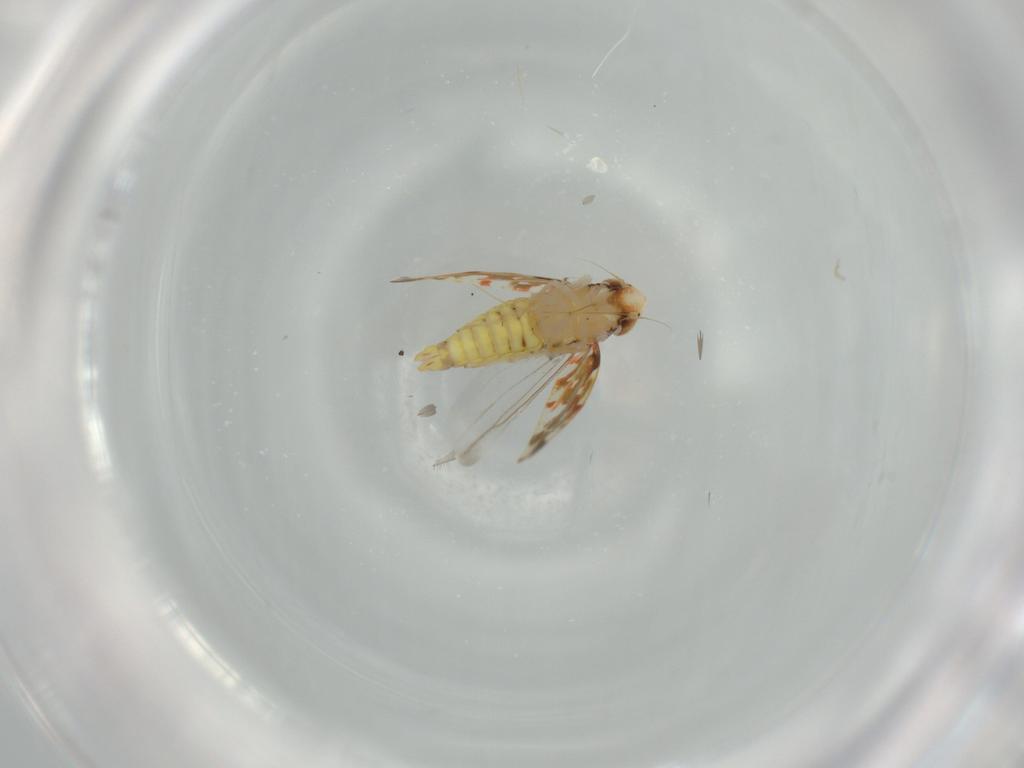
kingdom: Animalia
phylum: Arthropoda
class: Insecta
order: Hemiptera
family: Cicadellidae
